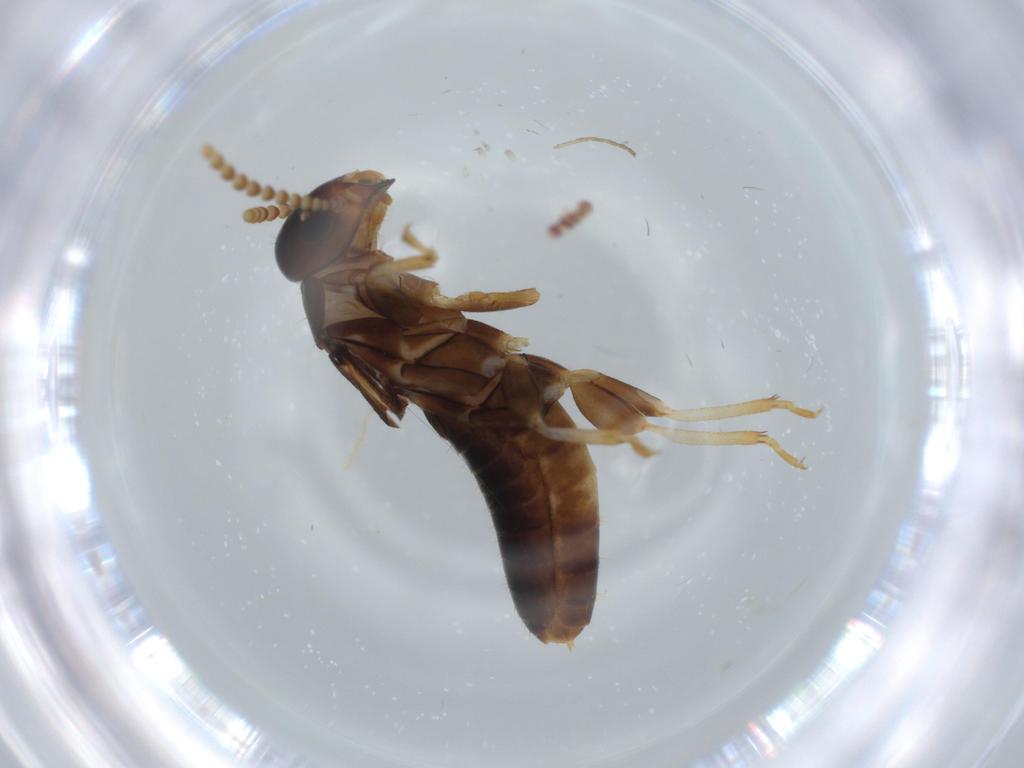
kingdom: Animalia
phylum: Arthropoda
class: Insecta
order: Blattodea
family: Kalotermitidae
